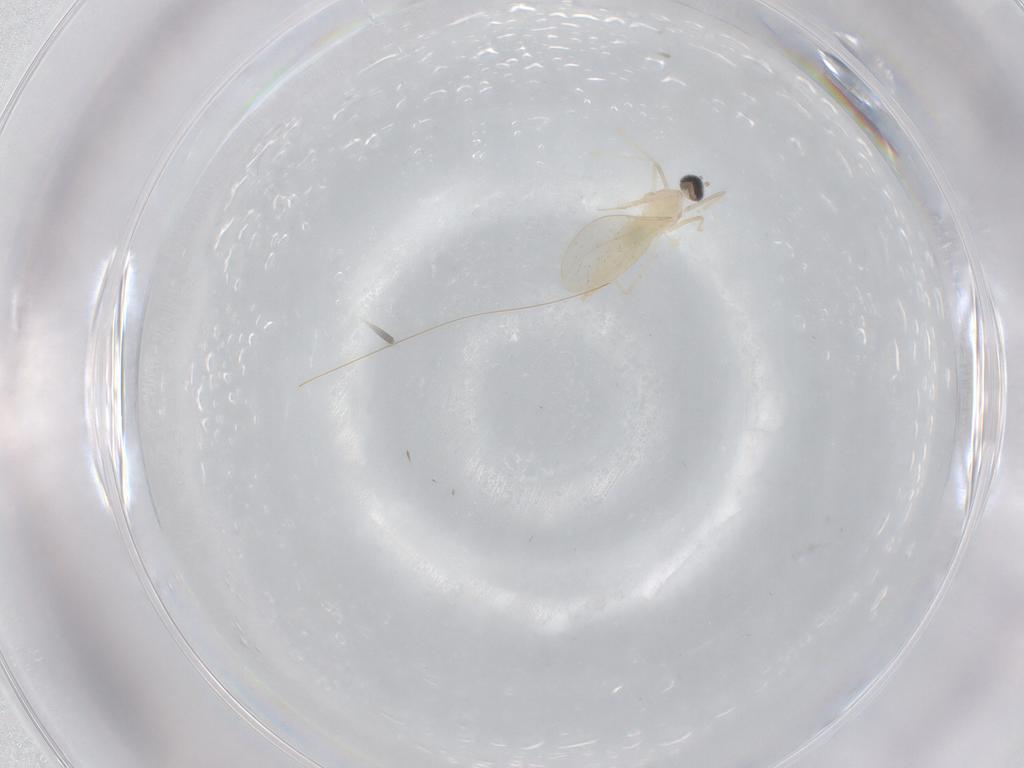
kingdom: Animalia
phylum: Arthropoda
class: Insecta
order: Diptera
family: Cecidomyiidae
